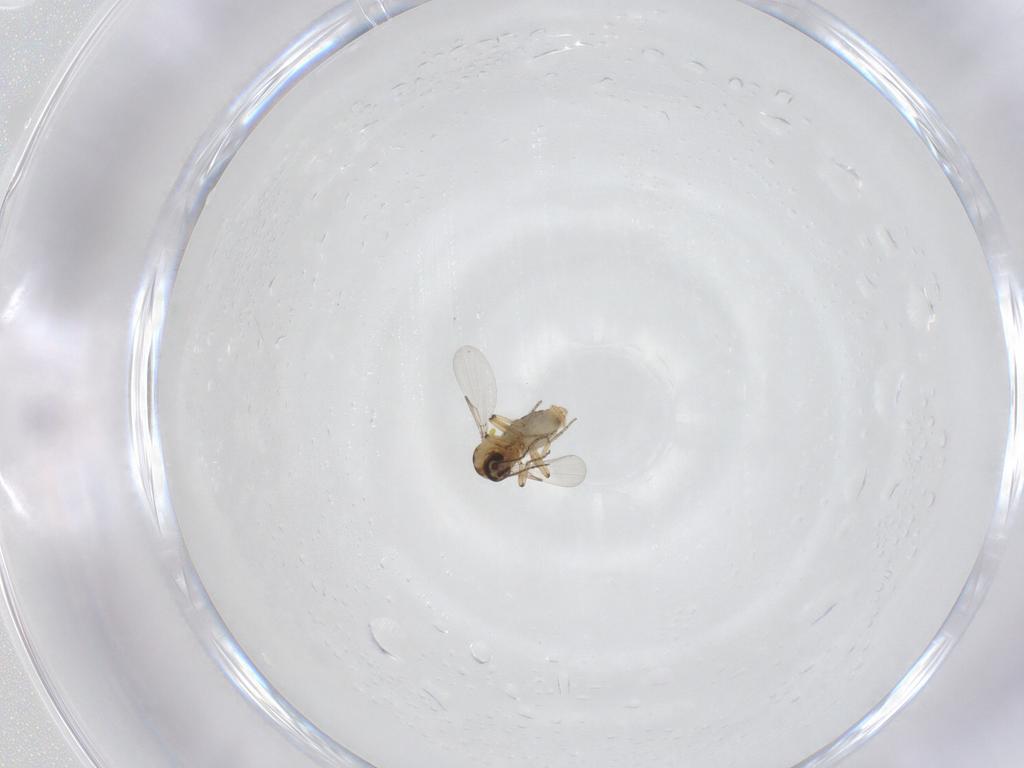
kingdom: Animalia
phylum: Arthropoda
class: Insecta
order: Diptera
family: Ceratopogonidae
